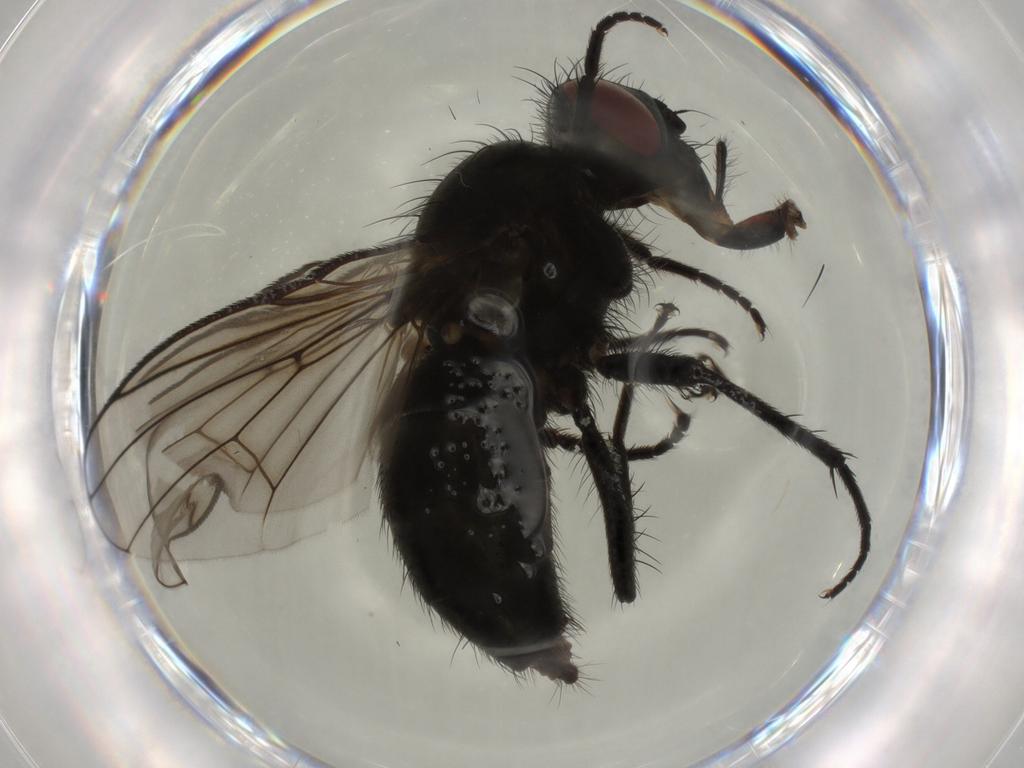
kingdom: Animalia
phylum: Arthropoda
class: Insecta
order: Diptera
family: Muscidae
